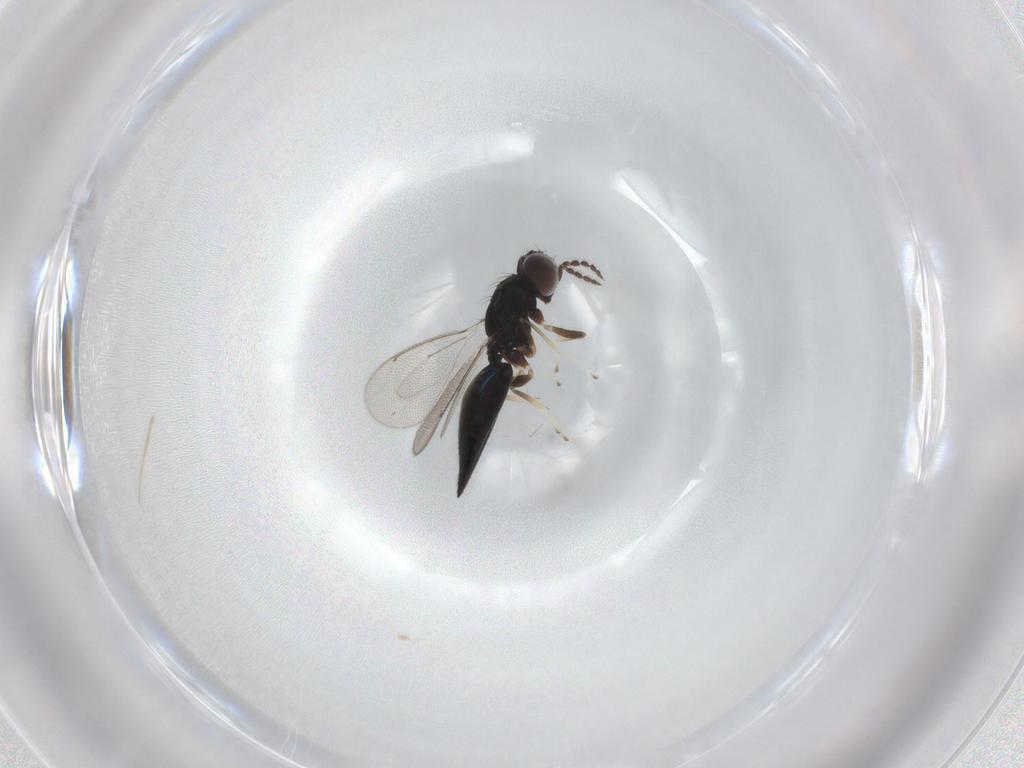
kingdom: Animalia
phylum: Arthropoda
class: Insecta
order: Hymenoptera
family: Eulophidae
